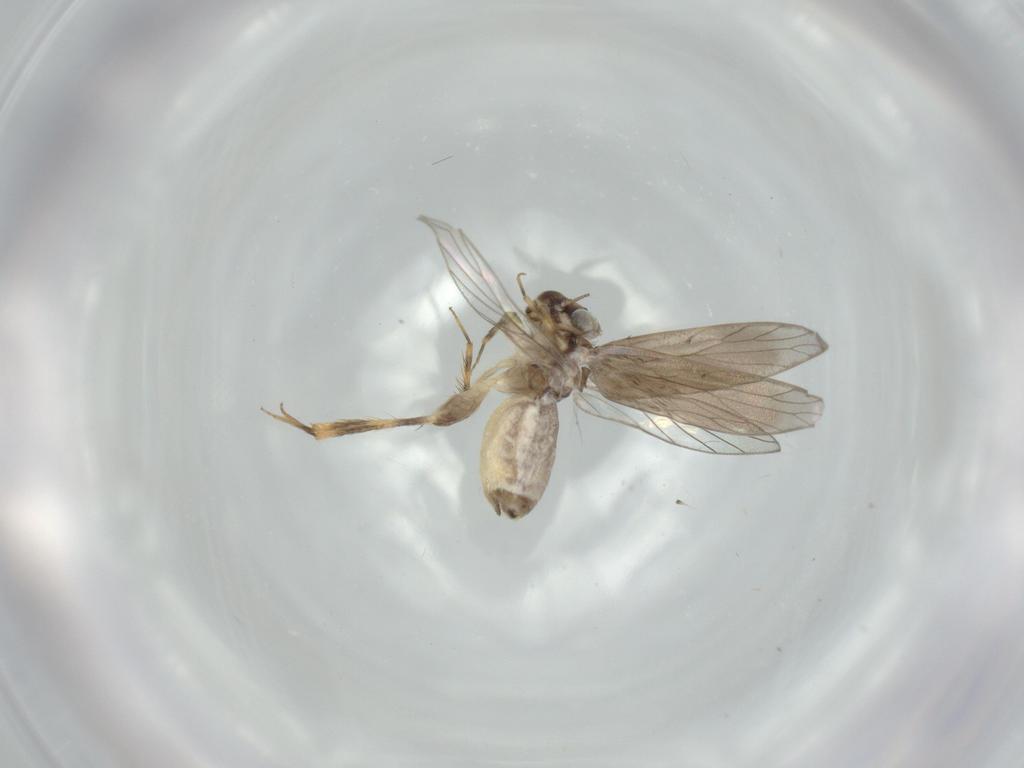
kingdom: Animalia
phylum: Arthropoda
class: Insecta
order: Psocodea
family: Lepidopsocidae
